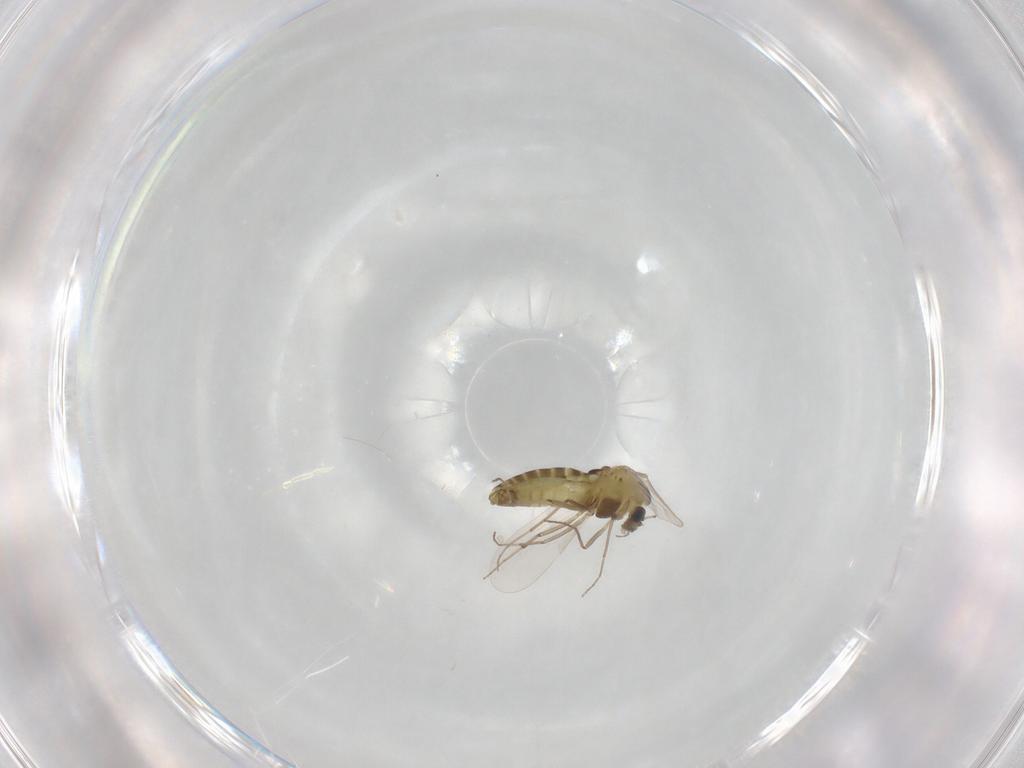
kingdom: Animalia
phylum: Arthropoda
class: Insecta
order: Diptera
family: Chironomidae
